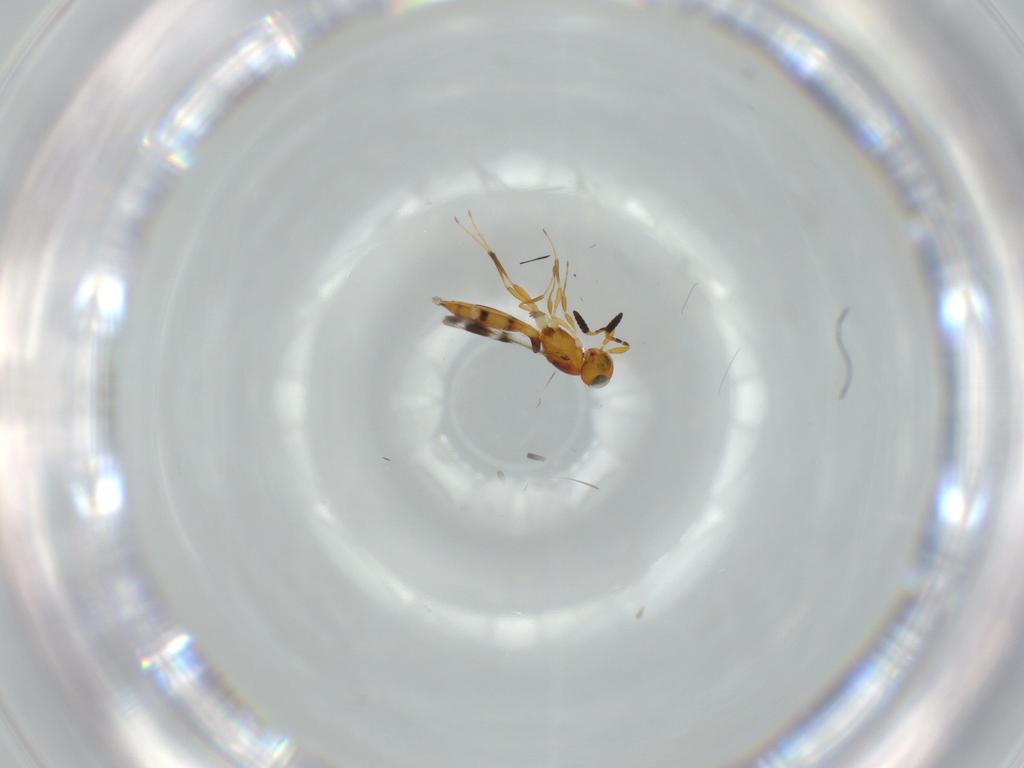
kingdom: Animalia
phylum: Arthropoda
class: Insecta
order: Hymenoptera
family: Scelionidae
